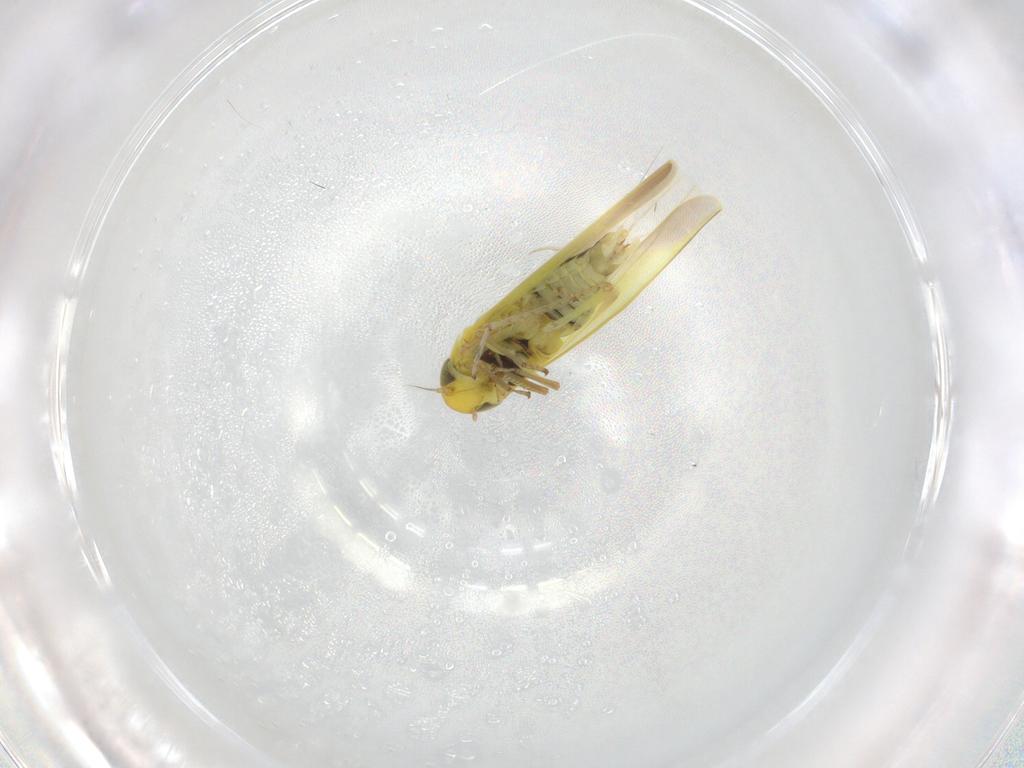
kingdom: Animalia
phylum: Arthropoda
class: Insecta
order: Hemiptera
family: Cicadellidae
